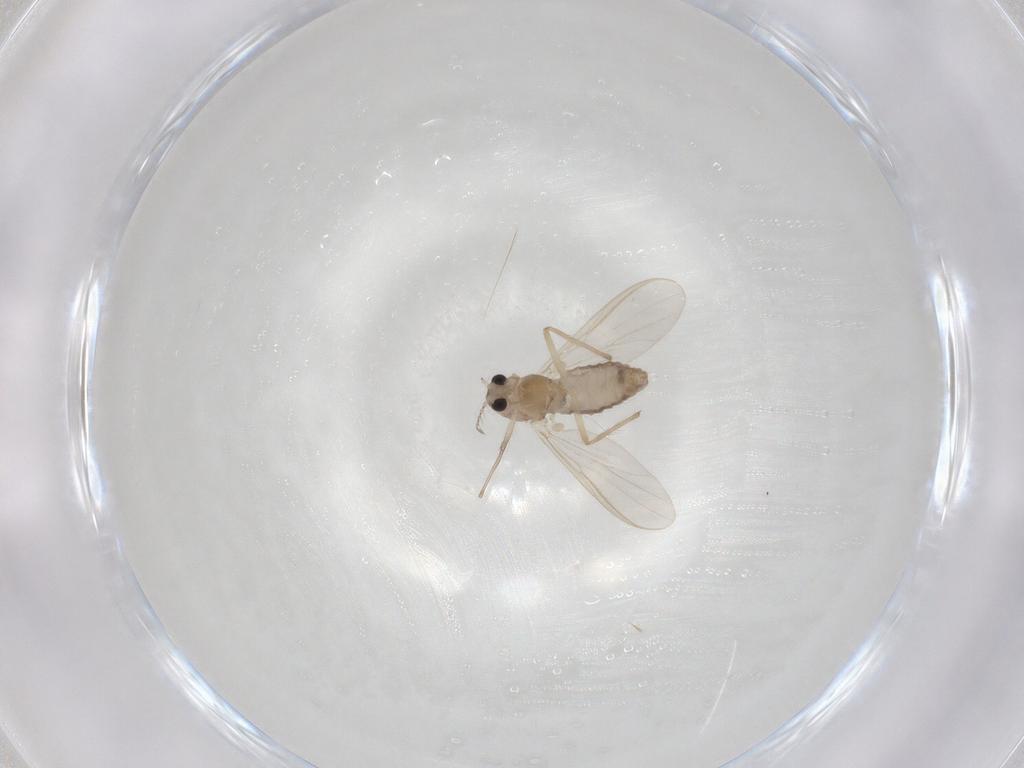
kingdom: Animalia
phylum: Arthropoda
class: Insecta
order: Diptera
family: Chironomidae
